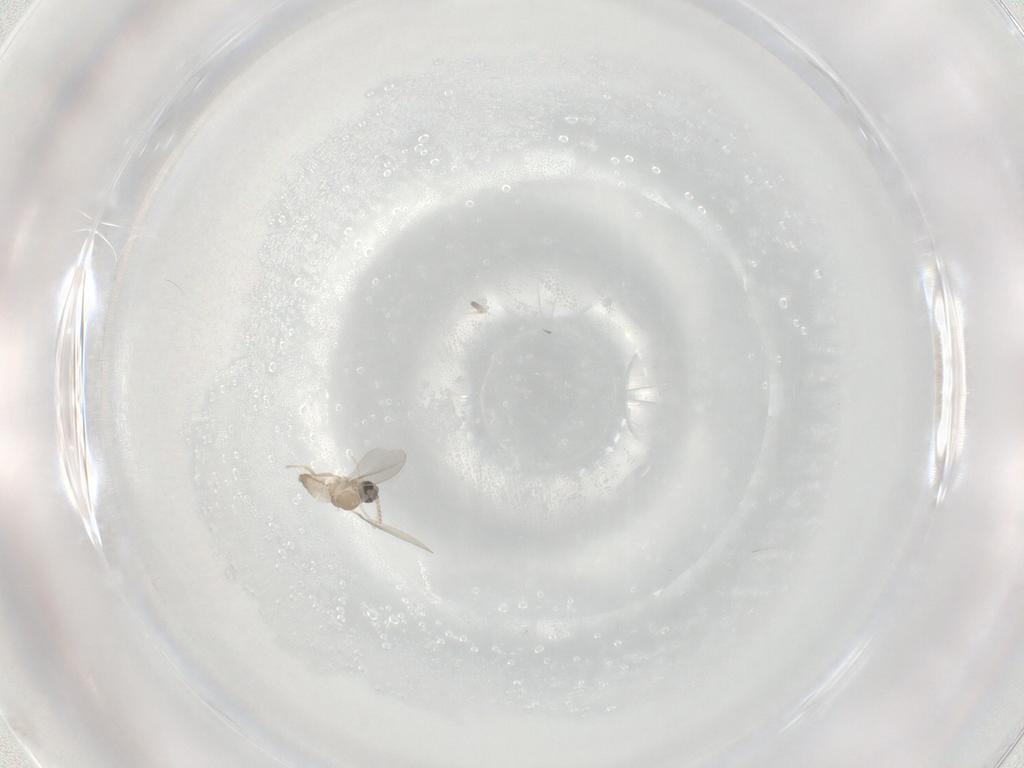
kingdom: Animalia
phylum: Arthropoda
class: Insecta
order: Diptera
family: Cecidomyiidae
